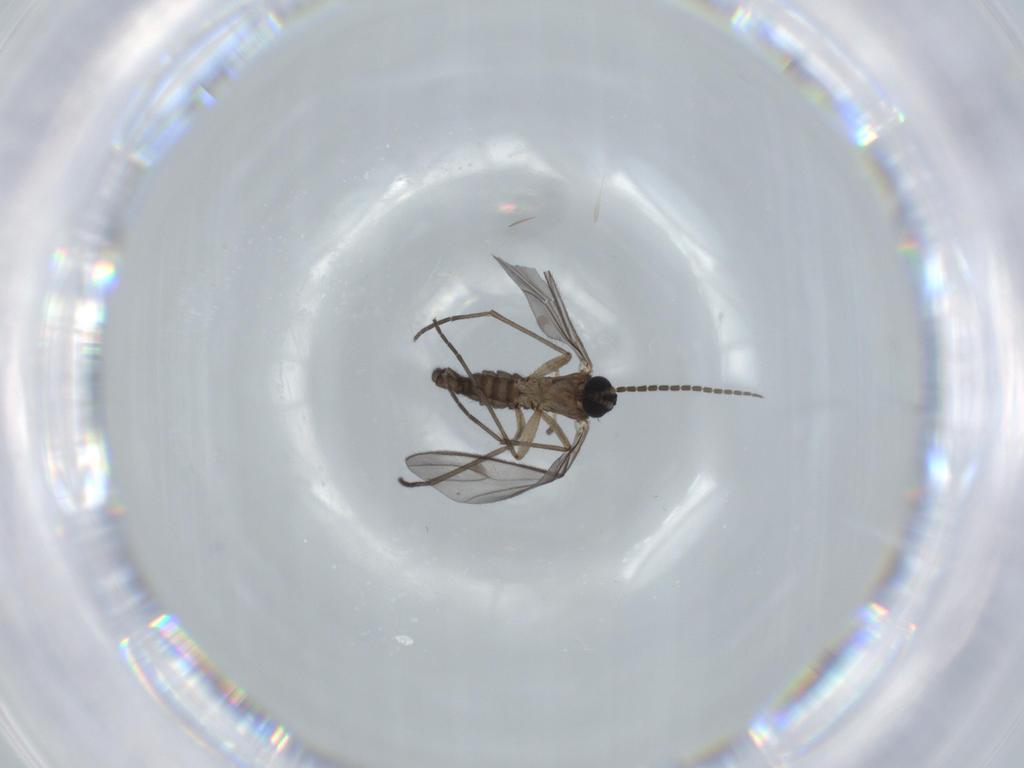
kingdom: Animalia
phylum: Arthropoda
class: Insecta
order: Diptera
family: Sciaridae
